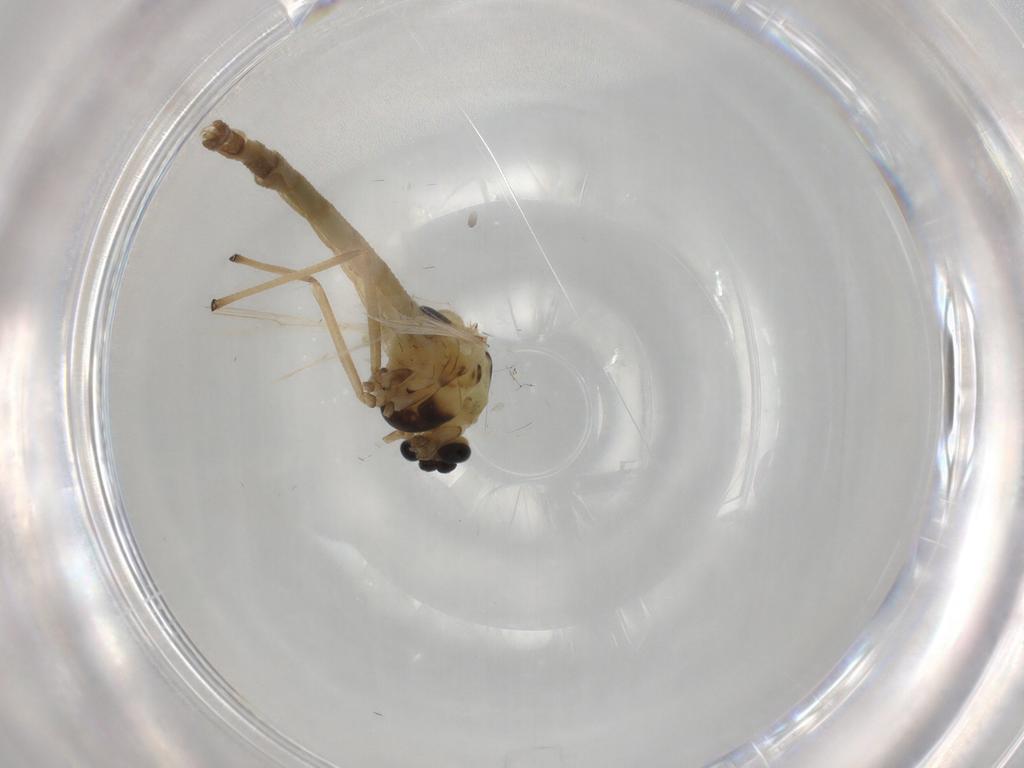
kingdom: Animalia
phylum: Arthropoda
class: Insecta
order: Diptera
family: Chironomidae
